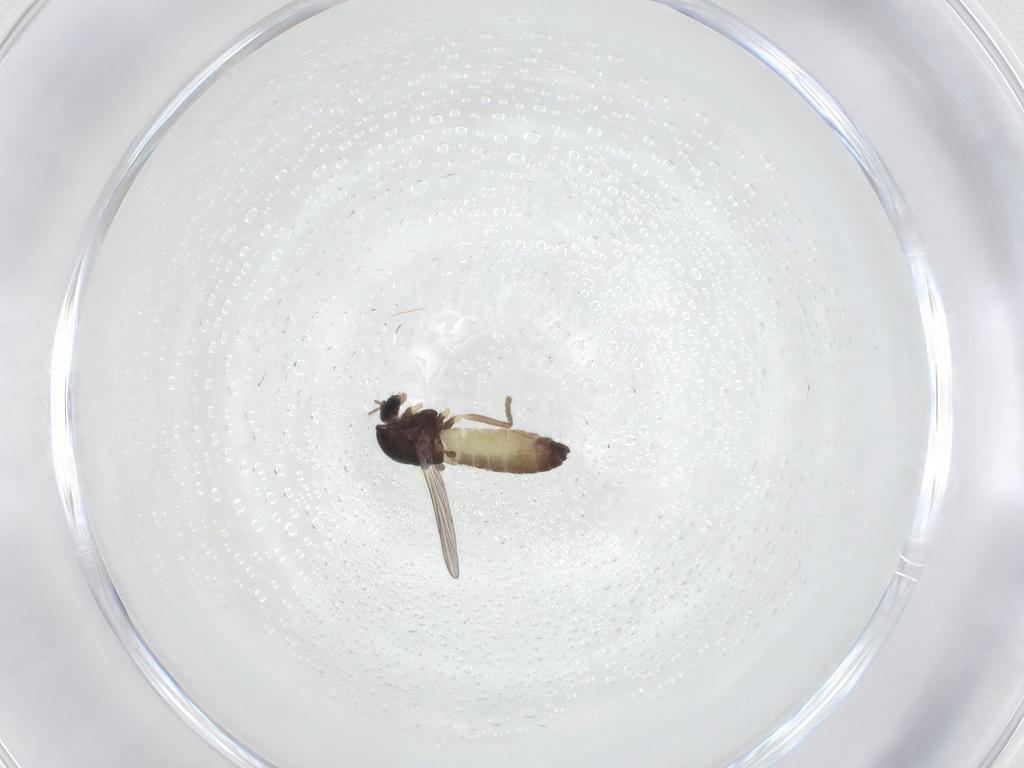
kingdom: Animalia
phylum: Arthropoda
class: Insecta
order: Diptera
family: Chironomidae
